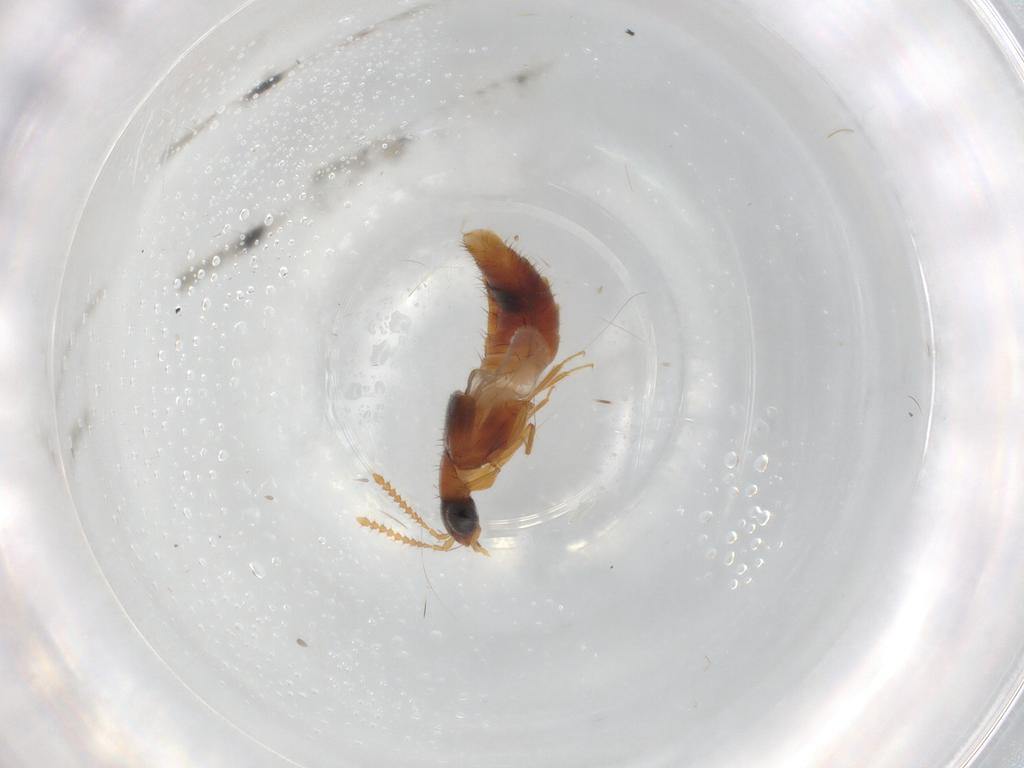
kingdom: Animalia
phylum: Arthropoda
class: Insecta
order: Coleoptera
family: Staphylinidae
